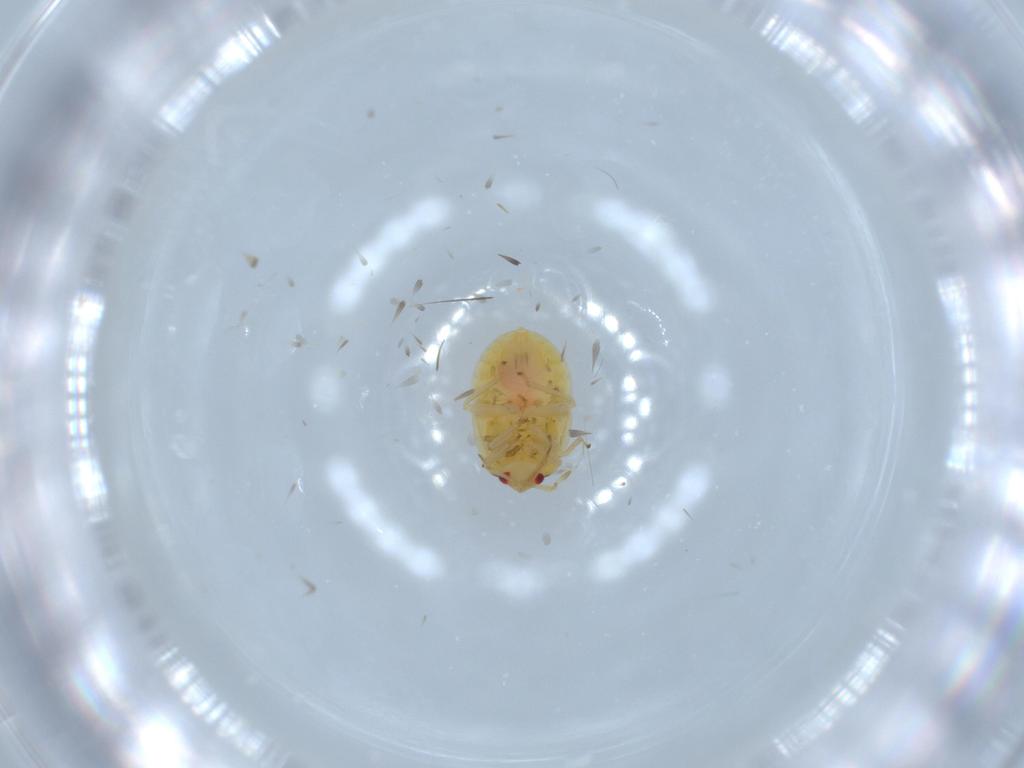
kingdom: Animalia
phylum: Arthropoda
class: Insecta
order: Hemiptera
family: Anthocoridae
